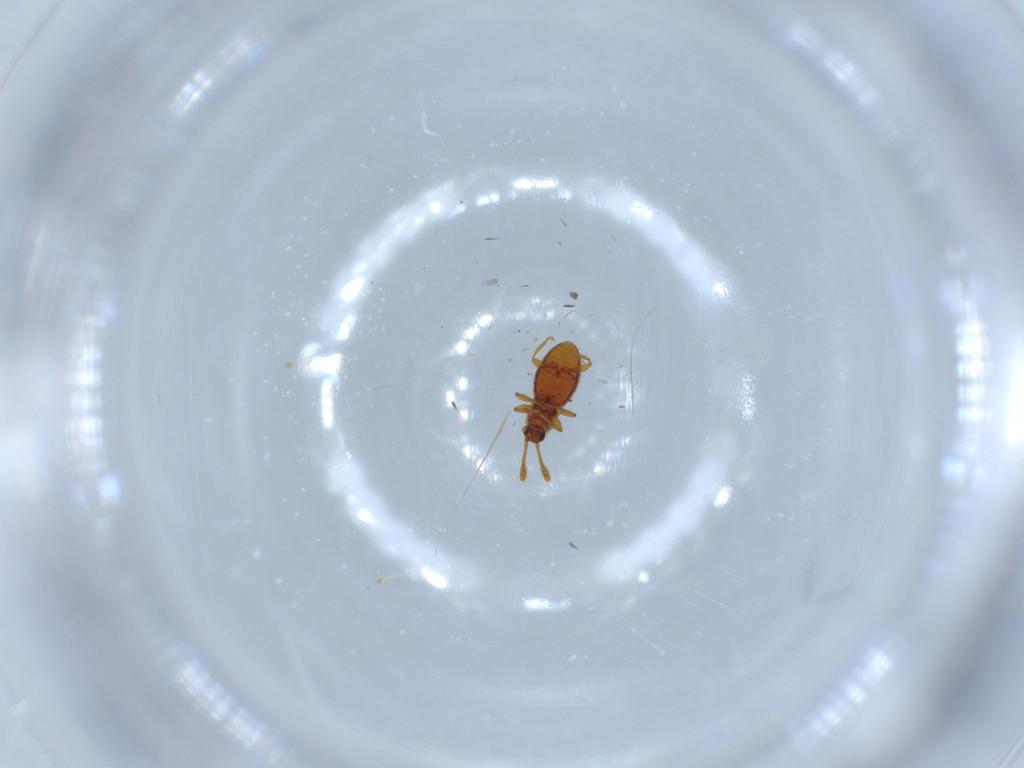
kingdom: Animalia
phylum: Arthropoda
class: Insecta
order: Coleoptera
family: Staphylinidae
